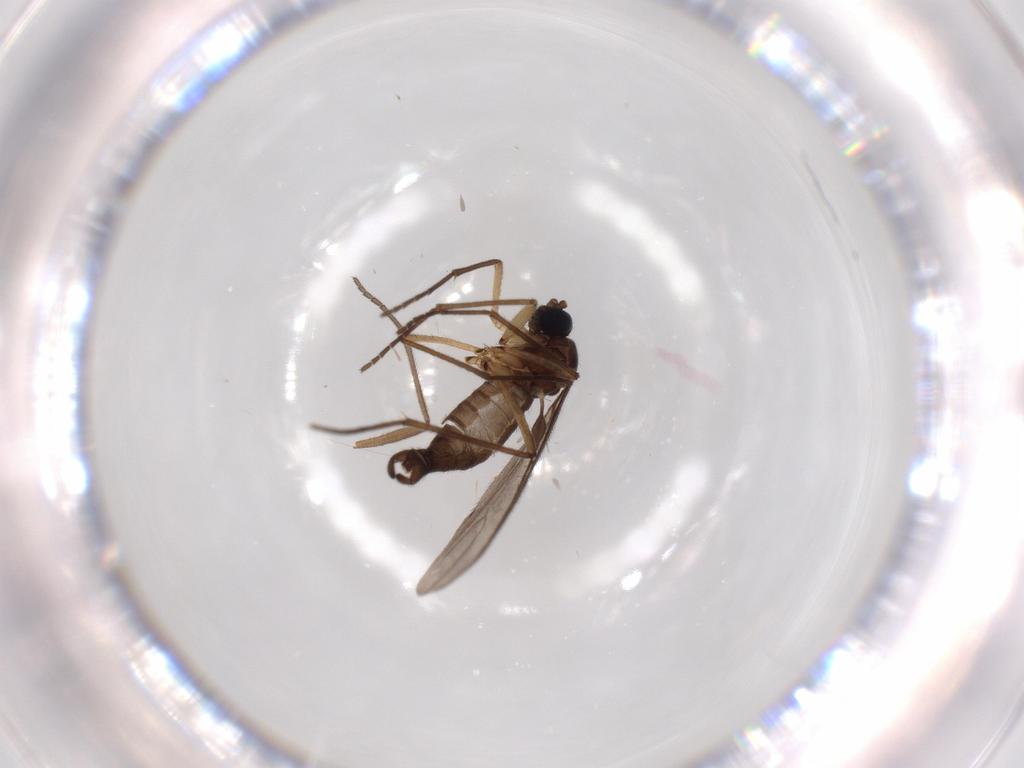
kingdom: Animalia
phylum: Arthropoda
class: Insecta
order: Diptera
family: Sciaridae
